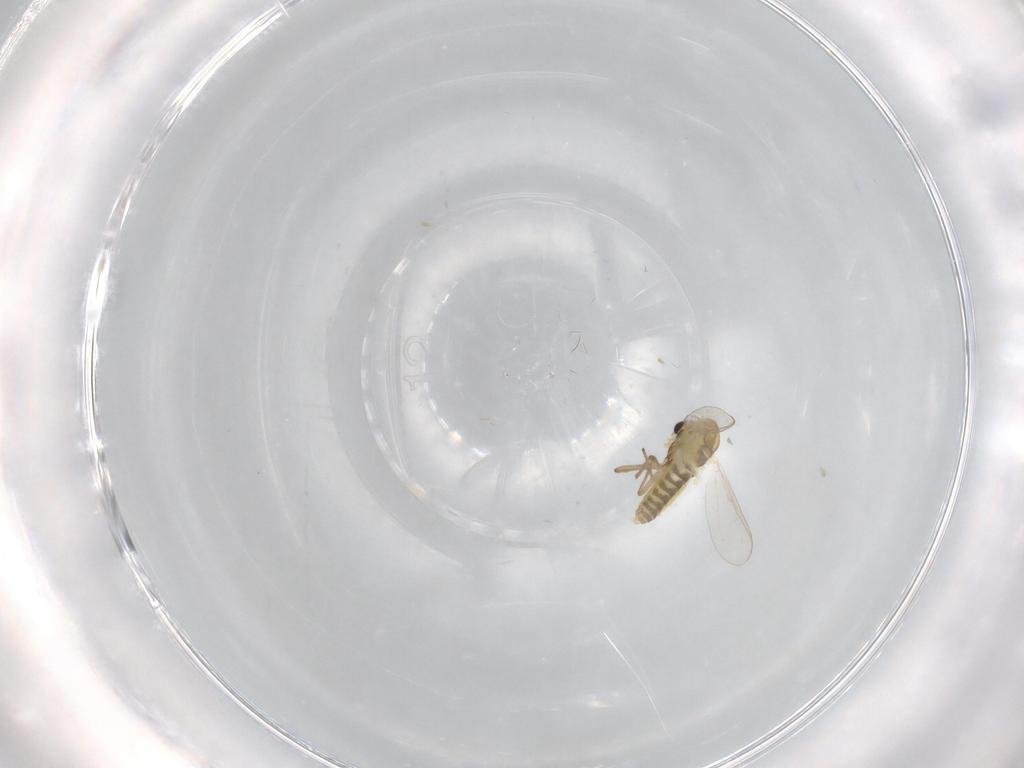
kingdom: Animalia
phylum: Arthropoda
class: Insecta
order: Diptera
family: Chironomidae
